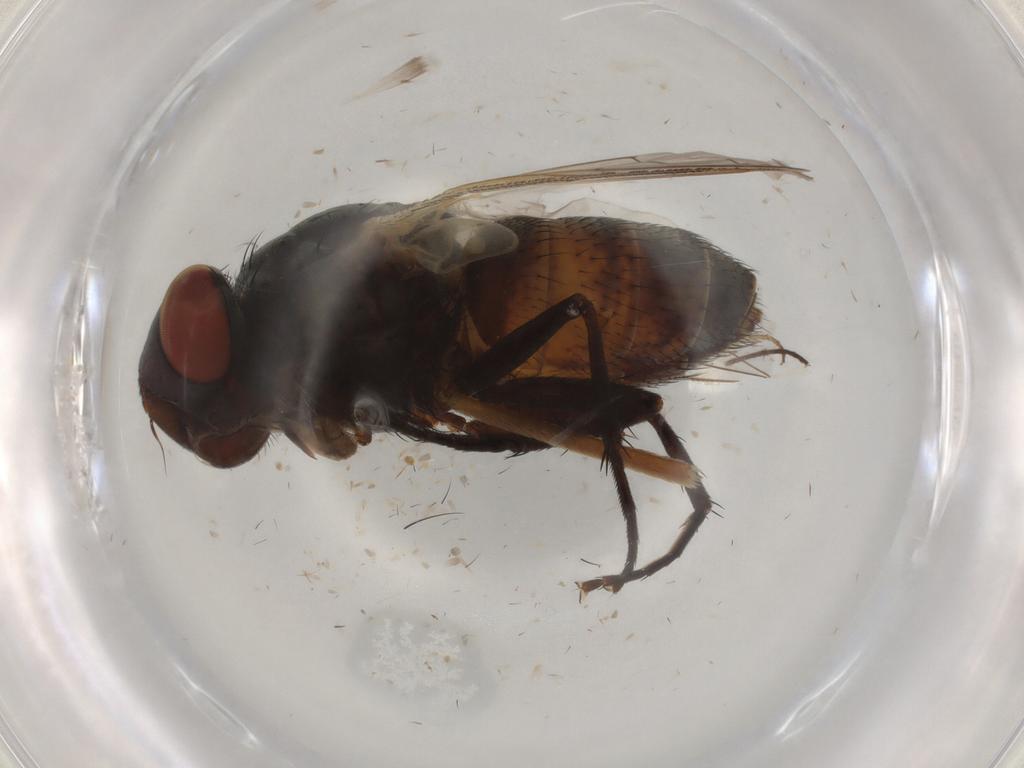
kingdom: Animalia
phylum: Arthropoda
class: Insecta
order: Diptera
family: Sarcophagidae
